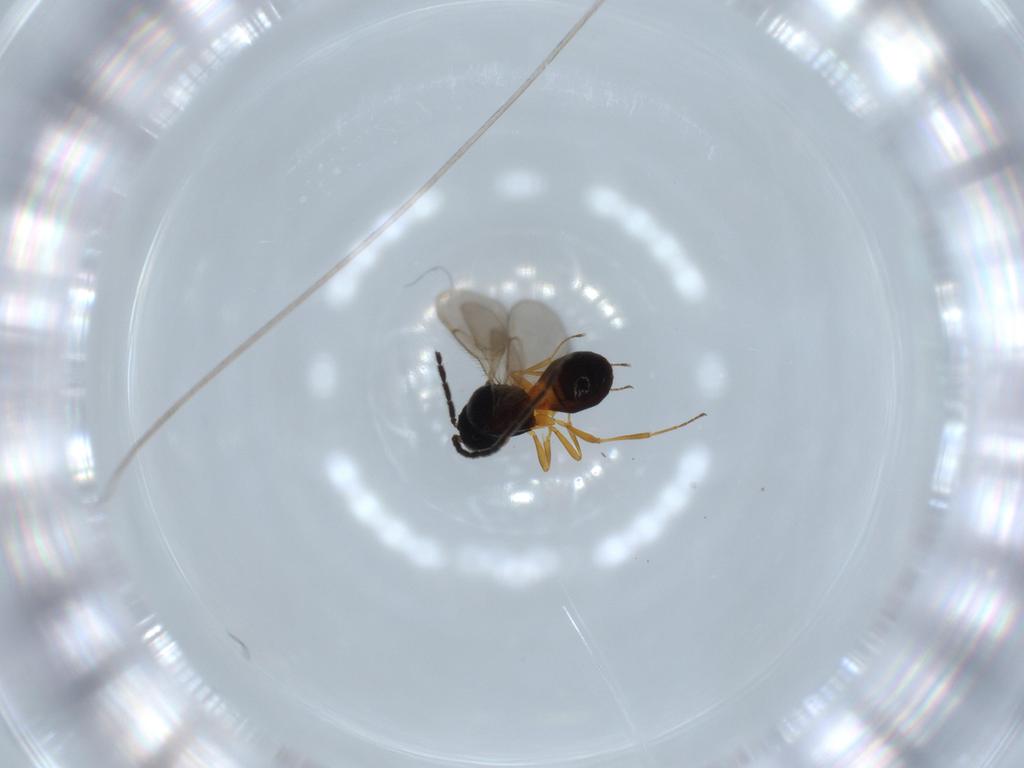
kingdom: Animalia
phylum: Arthropoda
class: Insecta
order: Hymenoptera
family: Scelionidae
